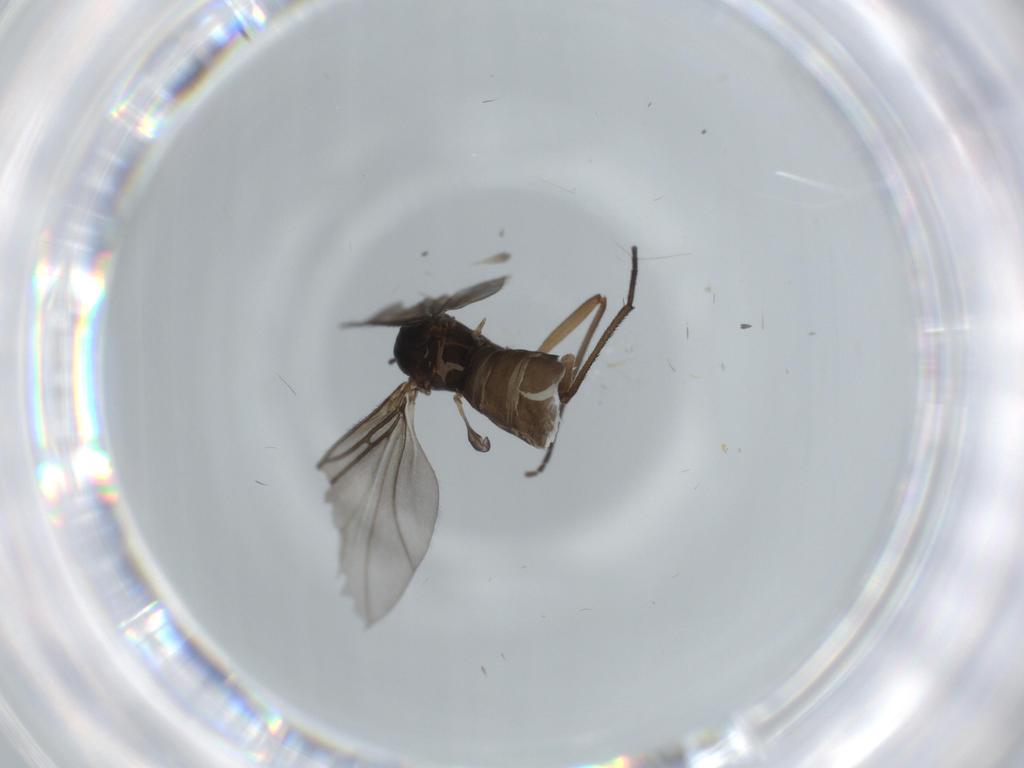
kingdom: Animalia
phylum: Arthropoda
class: Insecta
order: Diptera
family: Sciaridae
